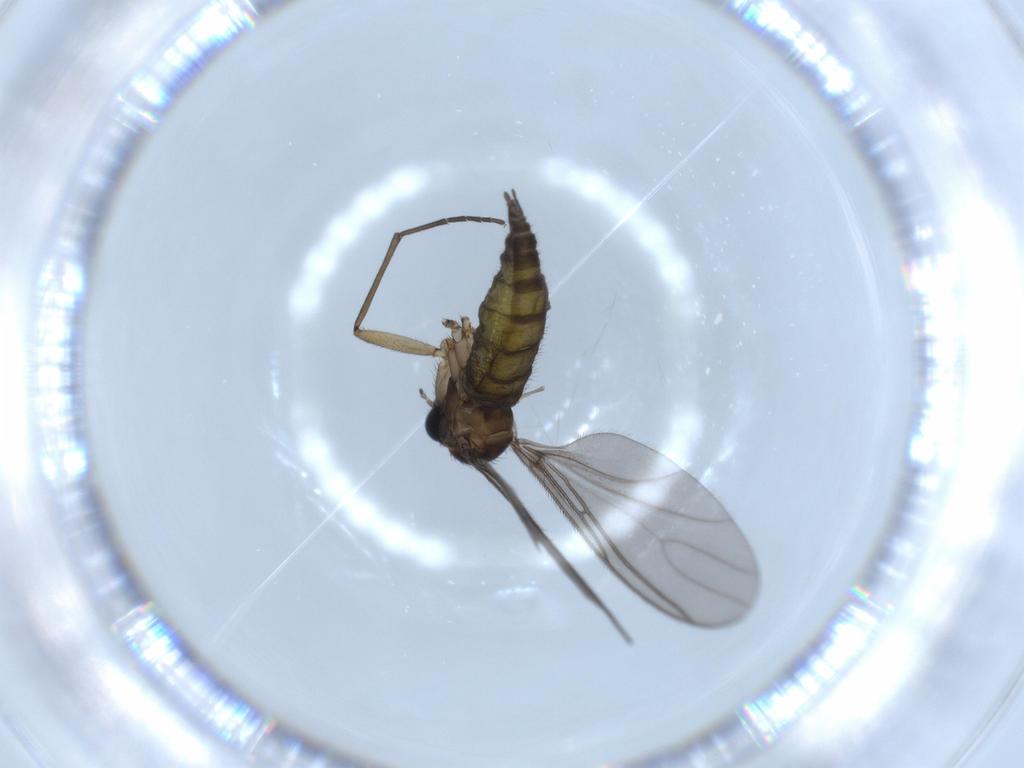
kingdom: Animalia
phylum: Arthropoda
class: Insecta
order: Diptera
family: Sciaridae
